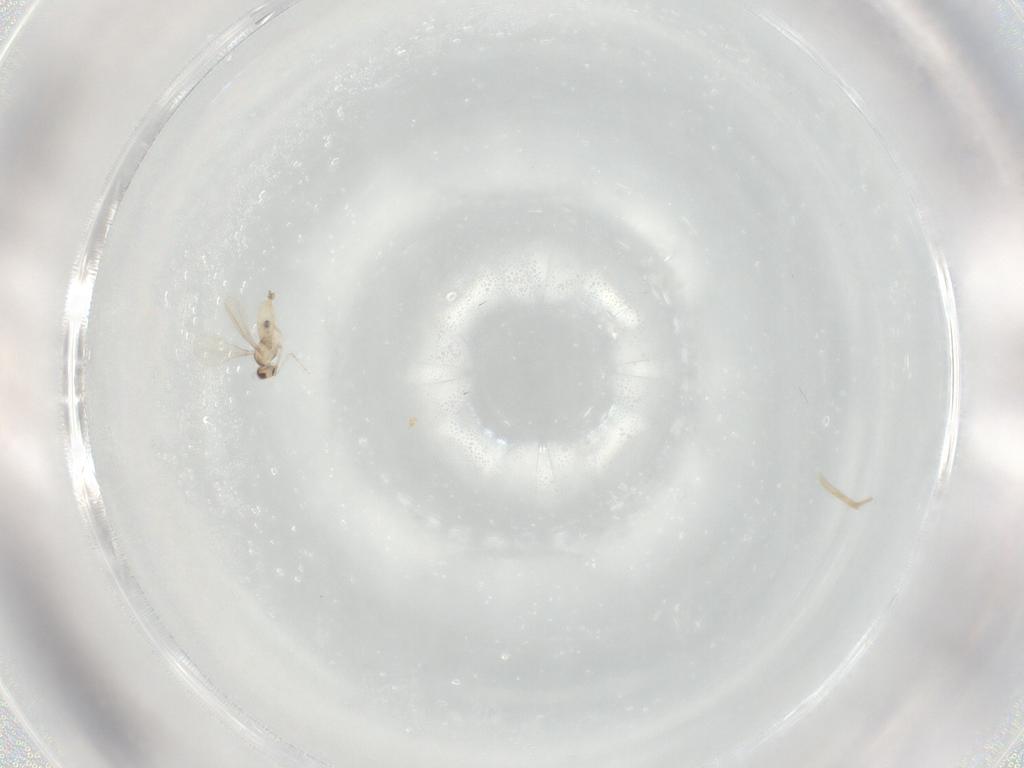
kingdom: Animalia
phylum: Arthropoda
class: Insecta
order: Diptera
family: Cecidomyiidae
